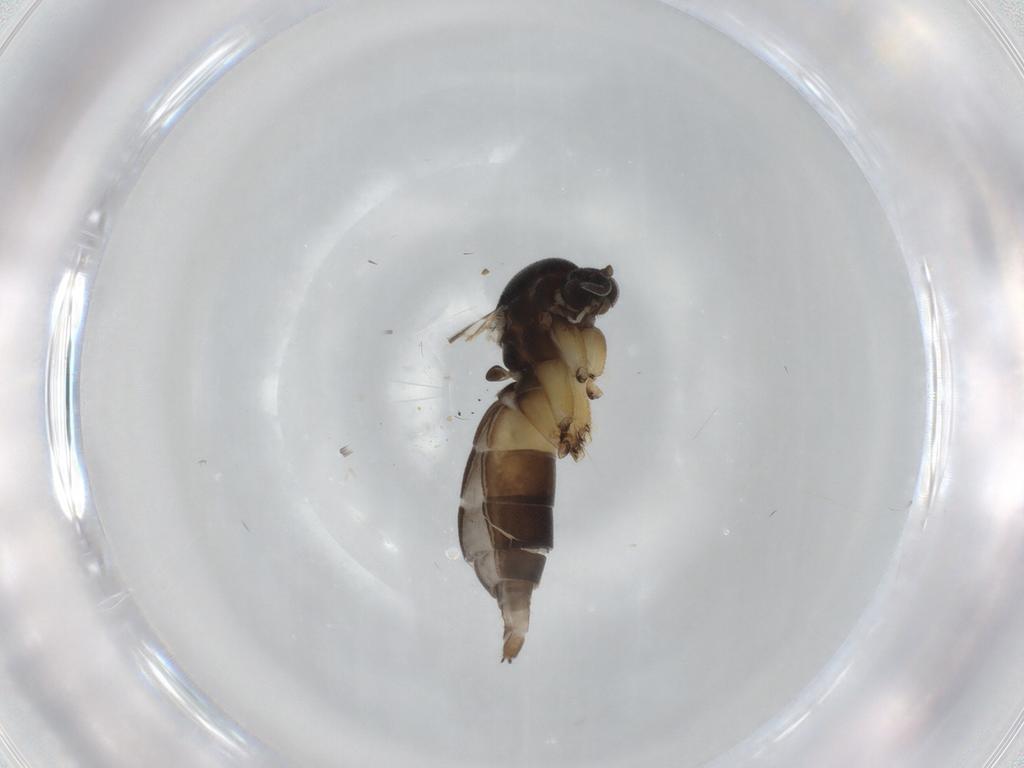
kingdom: Animalia
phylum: Arthropoda
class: Insecta
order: Diptera
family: Mycetophilidae
